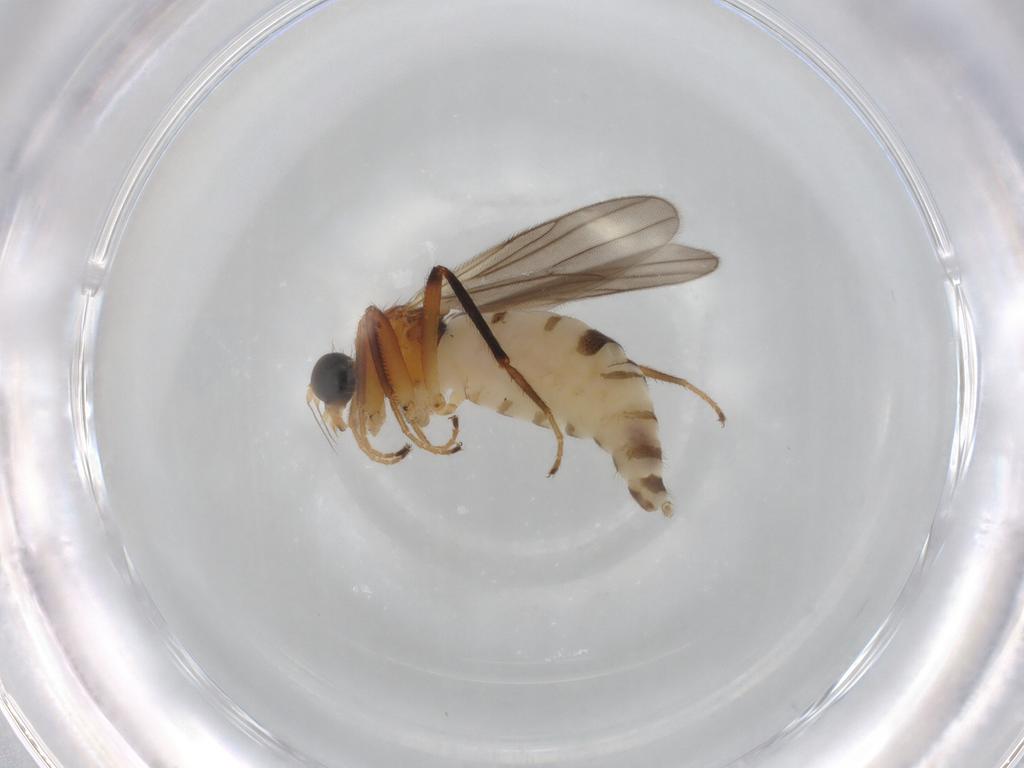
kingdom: Animalia
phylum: Arthropoda
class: Insecta
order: Diptera
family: Hybotidae
